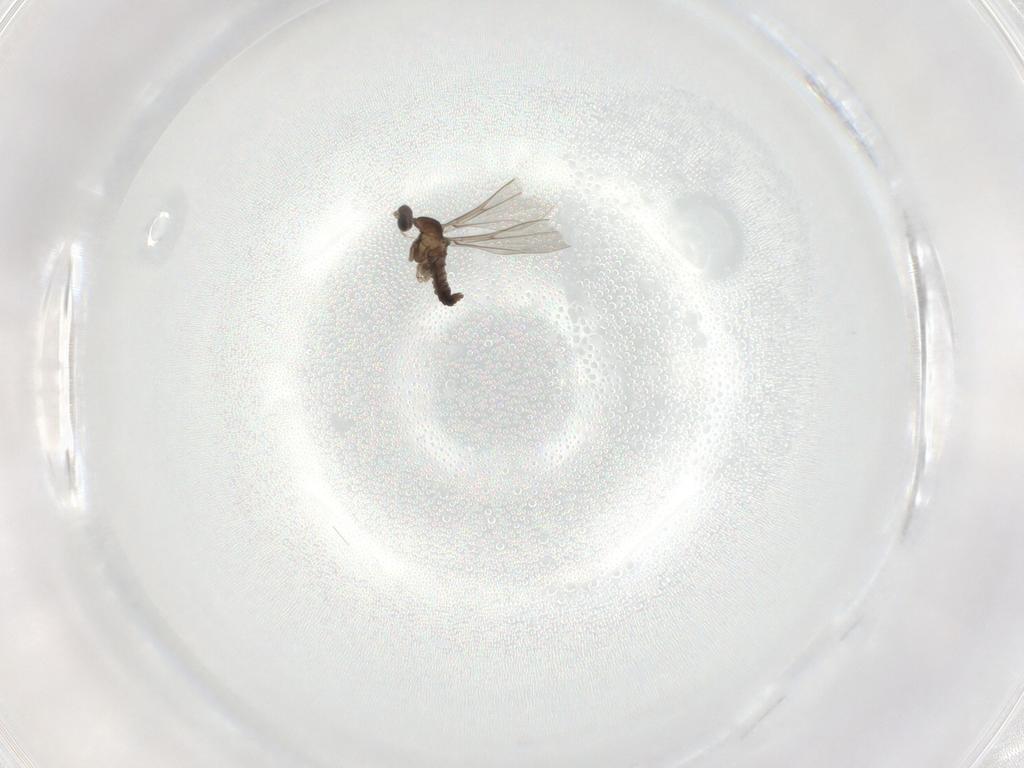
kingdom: Animalia
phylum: Arthropoda
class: Insecta
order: Diptera
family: Cecidomyiidae
